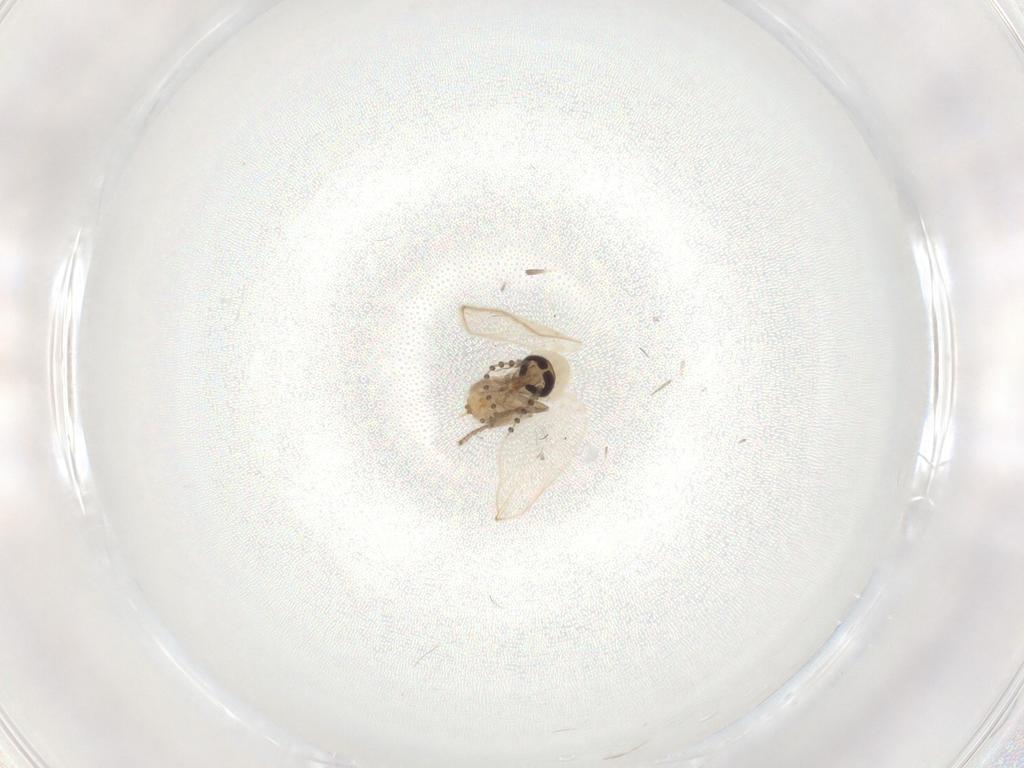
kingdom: Animalia
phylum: Arthropoda
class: Insecta
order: Diptera
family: Psychodidae
